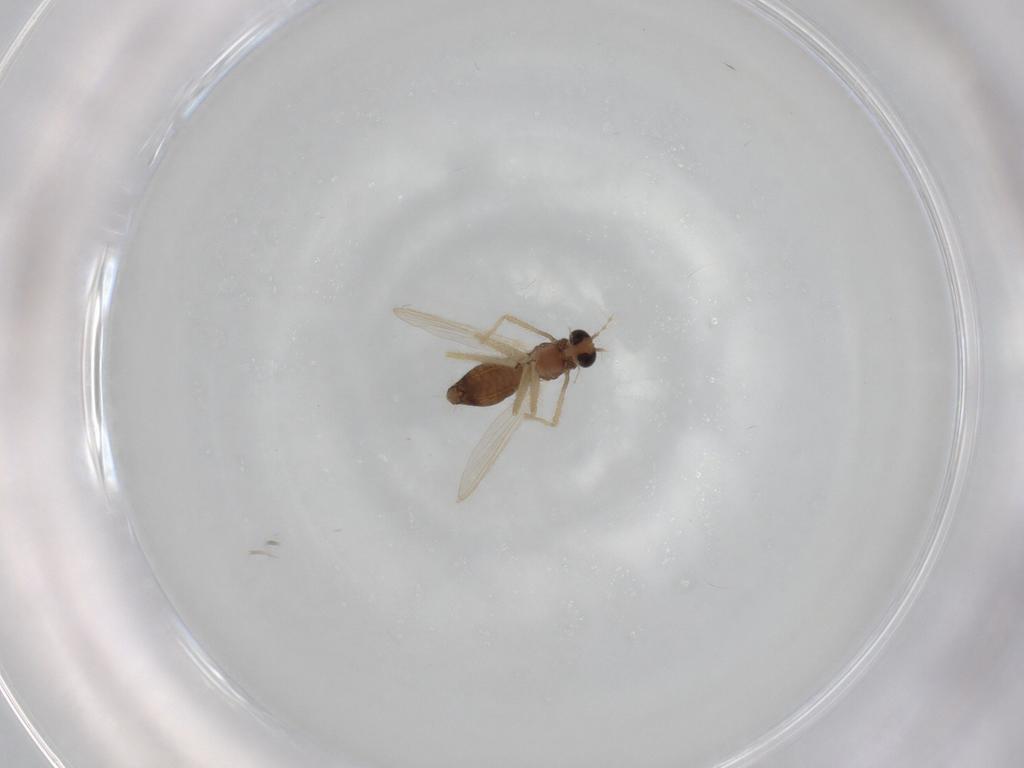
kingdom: Animalia
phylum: Arthropoda
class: Insecta
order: Diptera
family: Chironomidae
